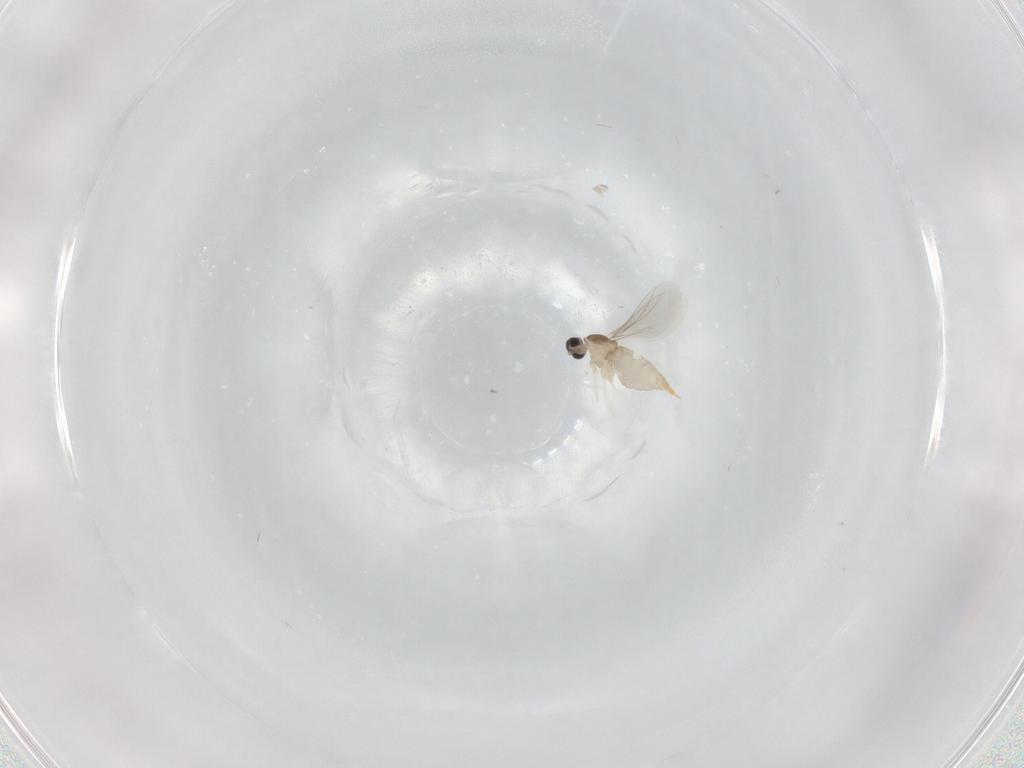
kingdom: Animalia
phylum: Arthropoda
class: Insecta
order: Diptera
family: Cecidomyiidae
